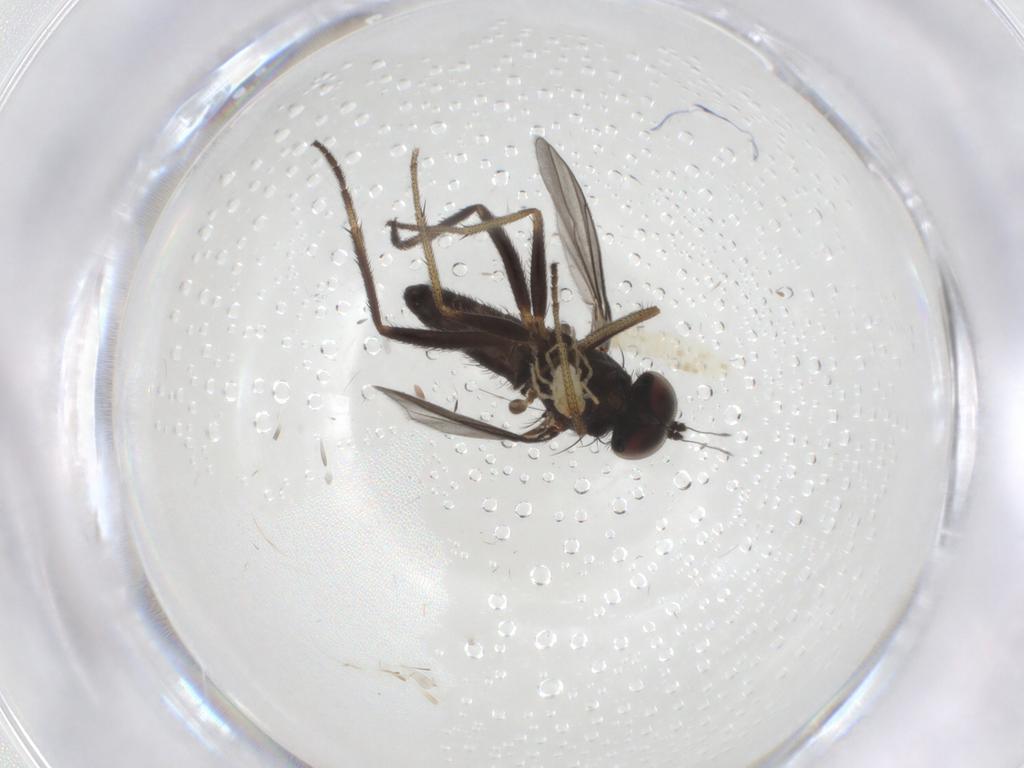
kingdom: Animalia
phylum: Arthropoda
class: Insecta
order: Diptera
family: Dolichopodidae
